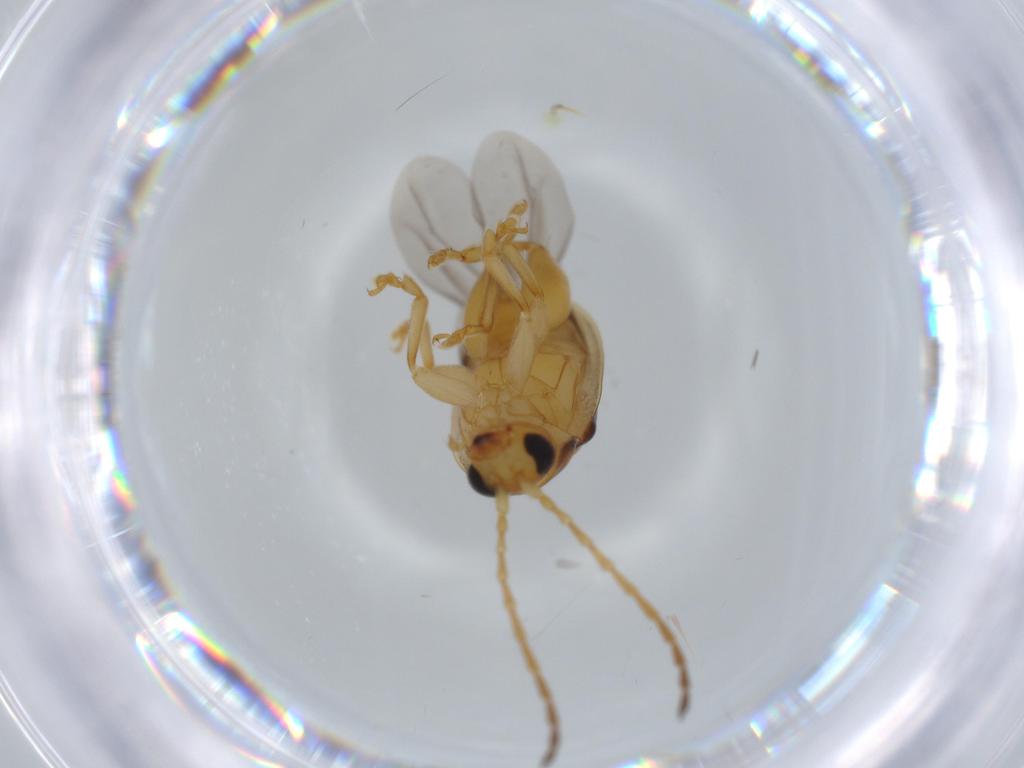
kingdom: Animalia
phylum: Arthropoda
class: Insecta
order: Coleoptera
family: Chrysomelidae
